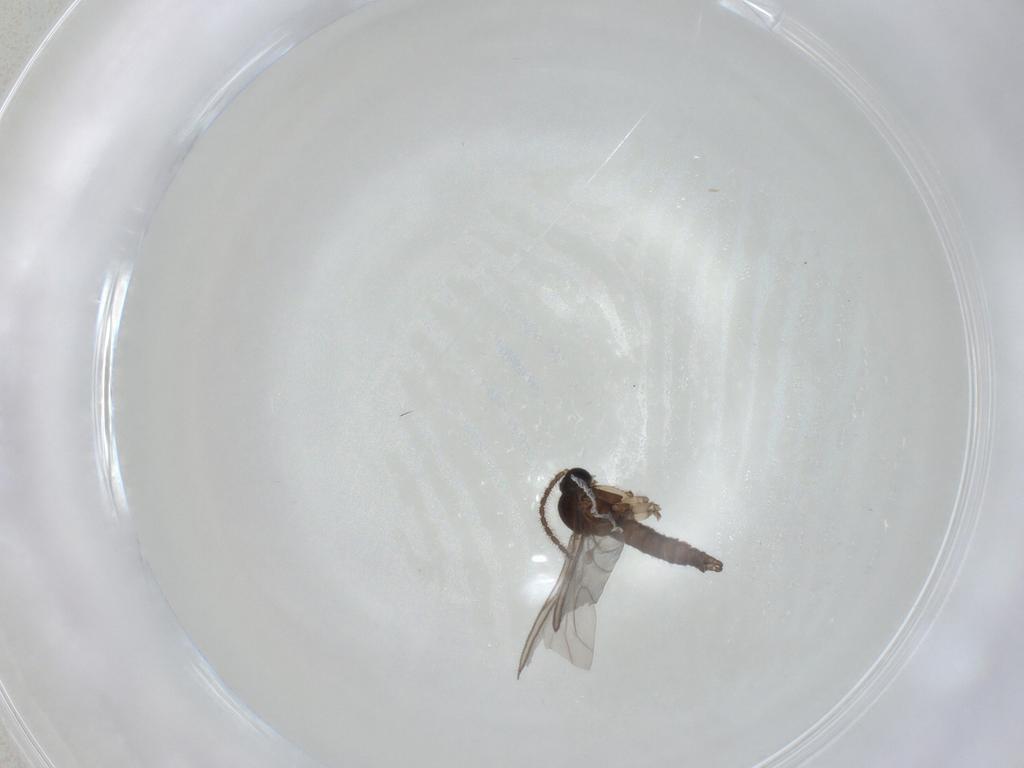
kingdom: Animalia
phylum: Arthropoda
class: Insecta
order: Diptera
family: Sciaridae
